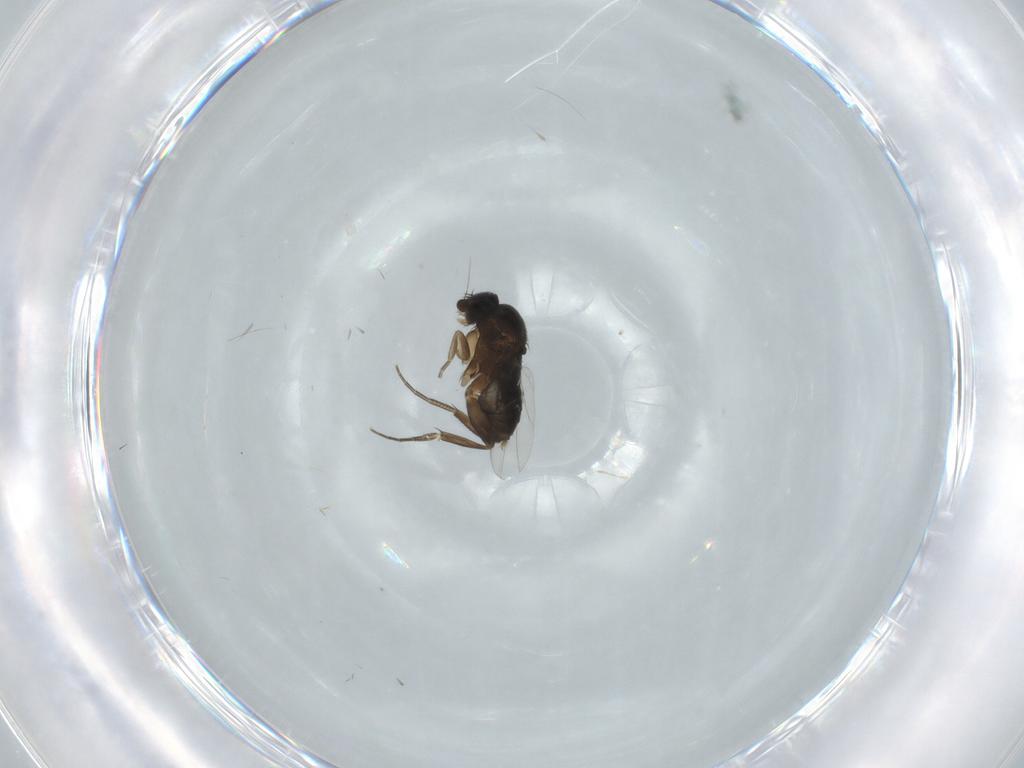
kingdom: Animalia
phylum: Arthropoda
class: Insecta
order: Diptera
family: Phoridae
